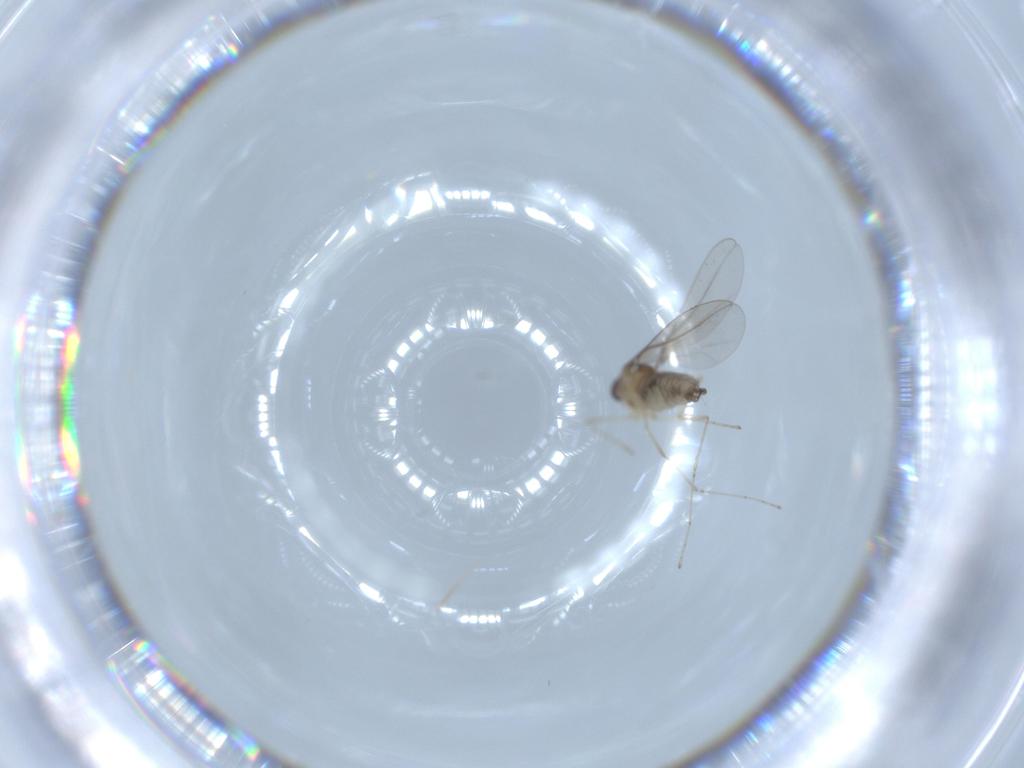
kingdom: Animalia
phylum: Arthropoda
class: Insecta
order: Diptera
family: Cecidomyiidae
